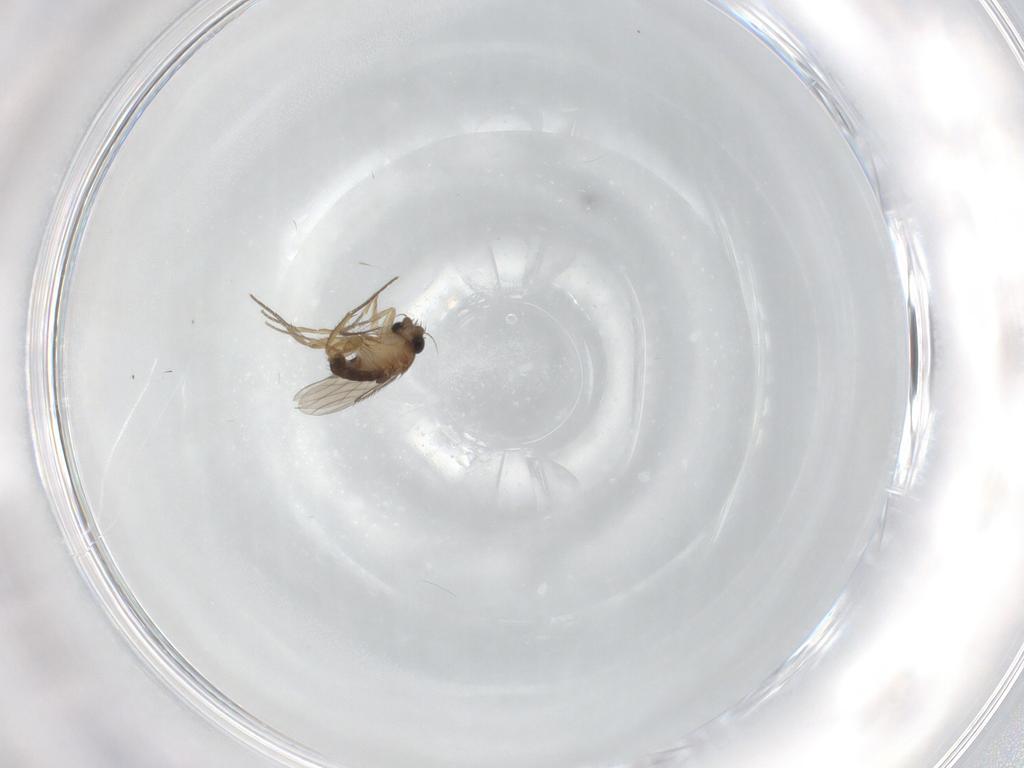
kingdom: Animalia
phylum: Arthropoda
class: Insecta
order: Diptera
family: Phoridae
